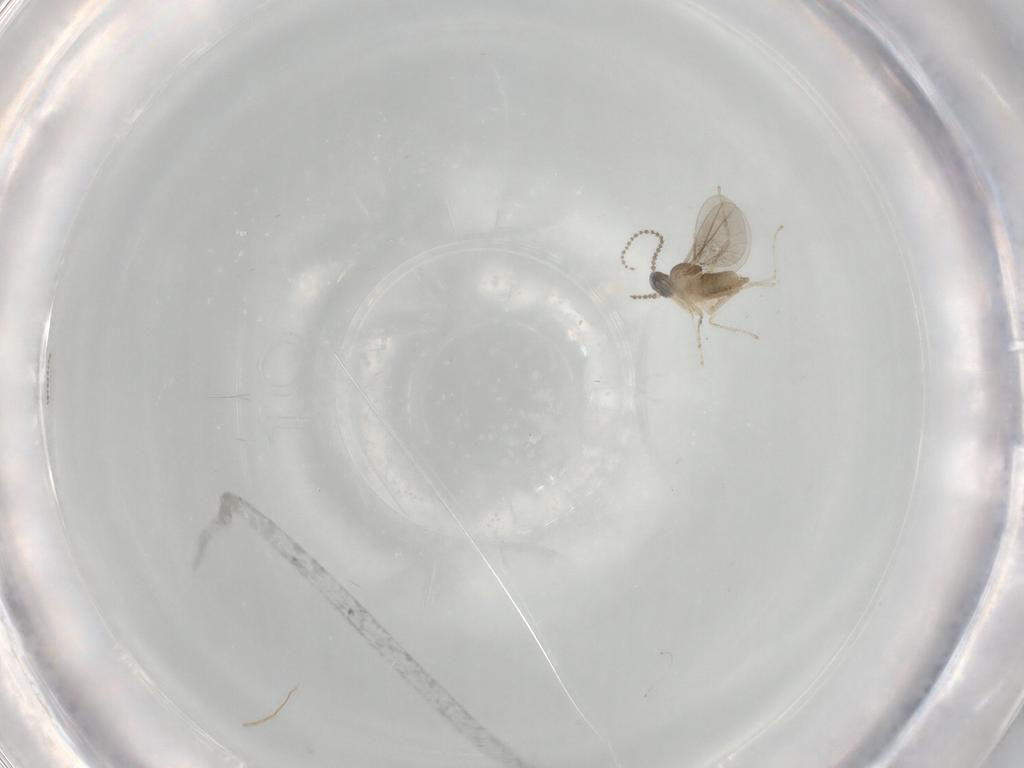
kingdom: Animalia
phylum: Arthropoda
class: Insecta
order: Diptera
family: Cecidomyiidae
